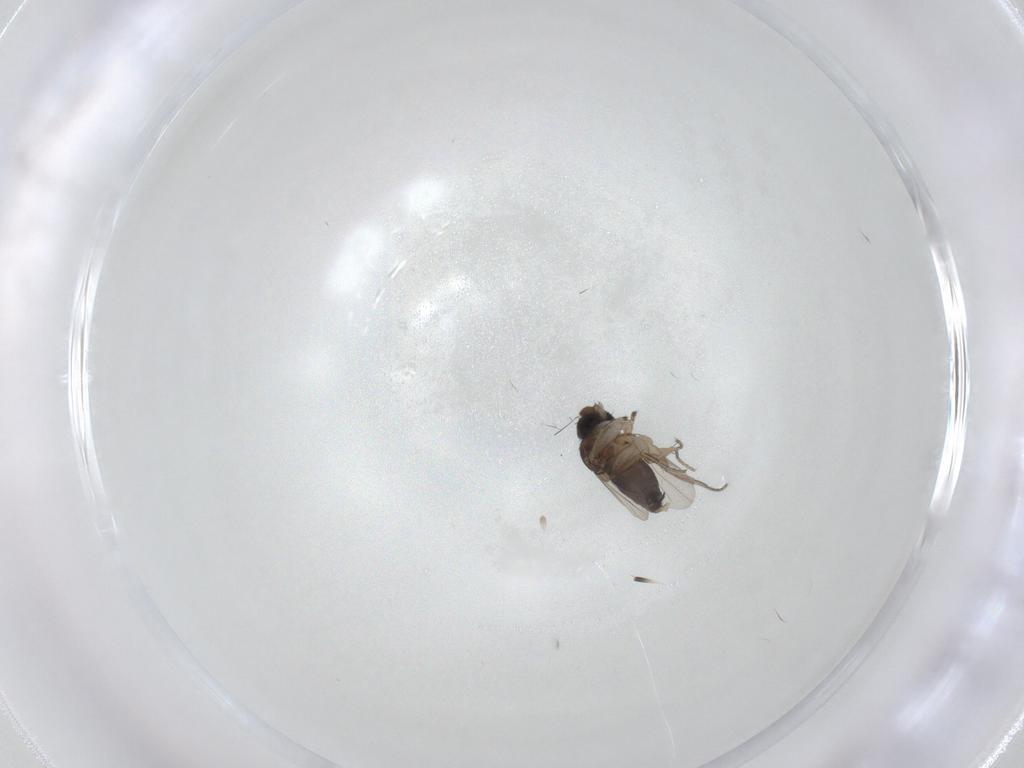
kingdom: Animalia
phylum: Arthropoda
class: Insecta
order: Diptera
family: Phoridae
